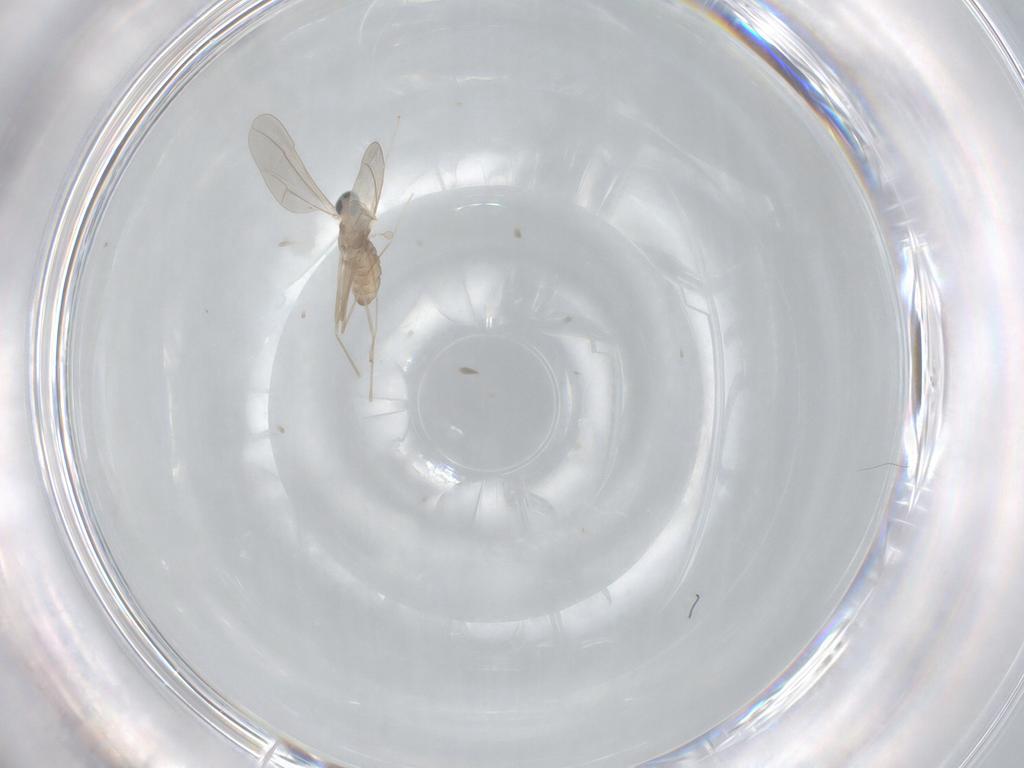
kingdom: Animalia
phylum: Arthropoda
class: Insecta
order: Diptera
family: Cecidomyiidae
